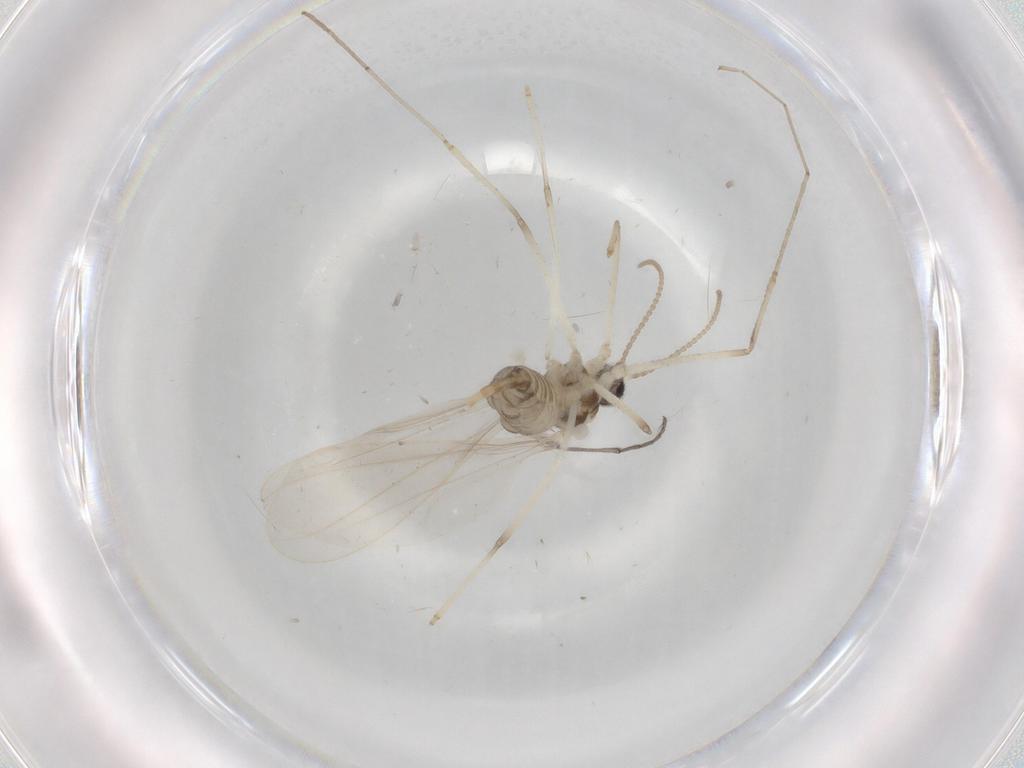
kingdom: Animalia
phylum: Arthropoda
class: Insecta
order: Diptera
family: Cecidomyiidae
